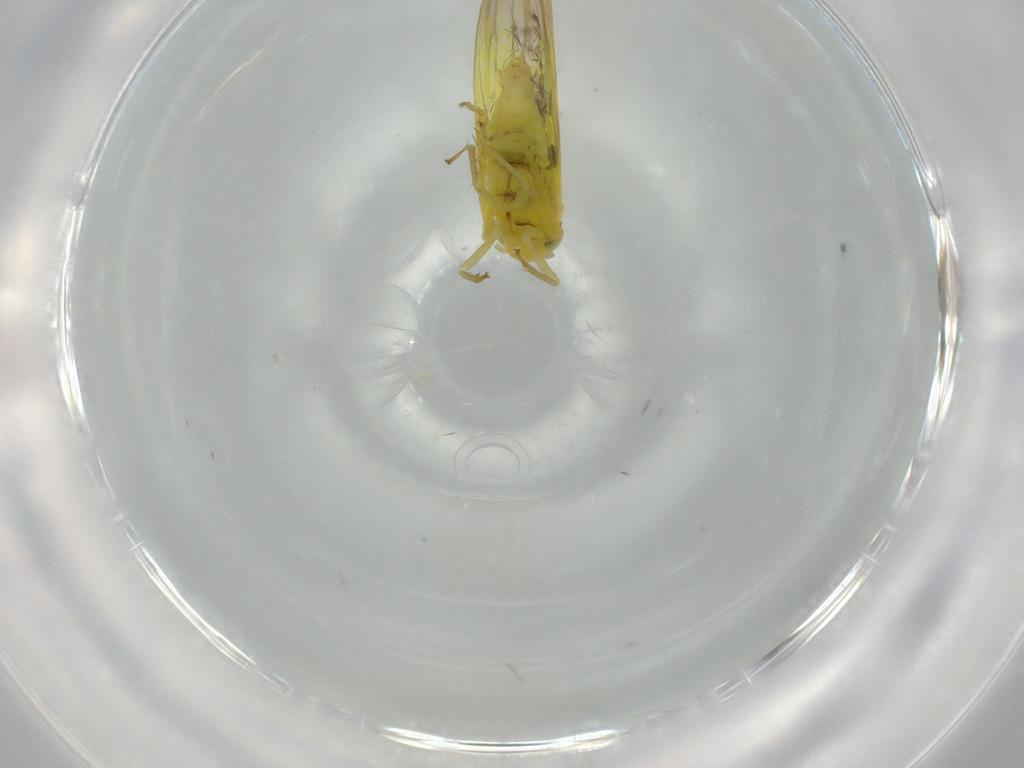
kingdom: Animalia
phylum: Arthropoda
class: Insecta
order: Hemiptera
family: Cicadellidae
